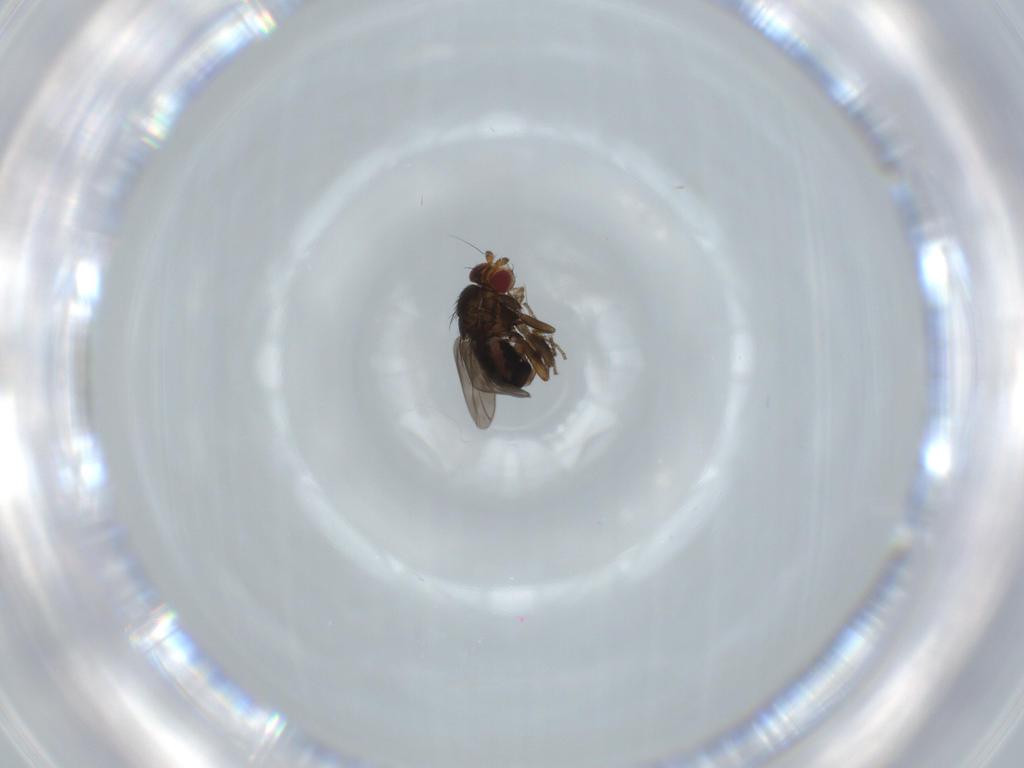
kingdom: Animalia
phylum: Arthropoda
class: Insecta
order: Diptera
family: Sphaeroceridae
